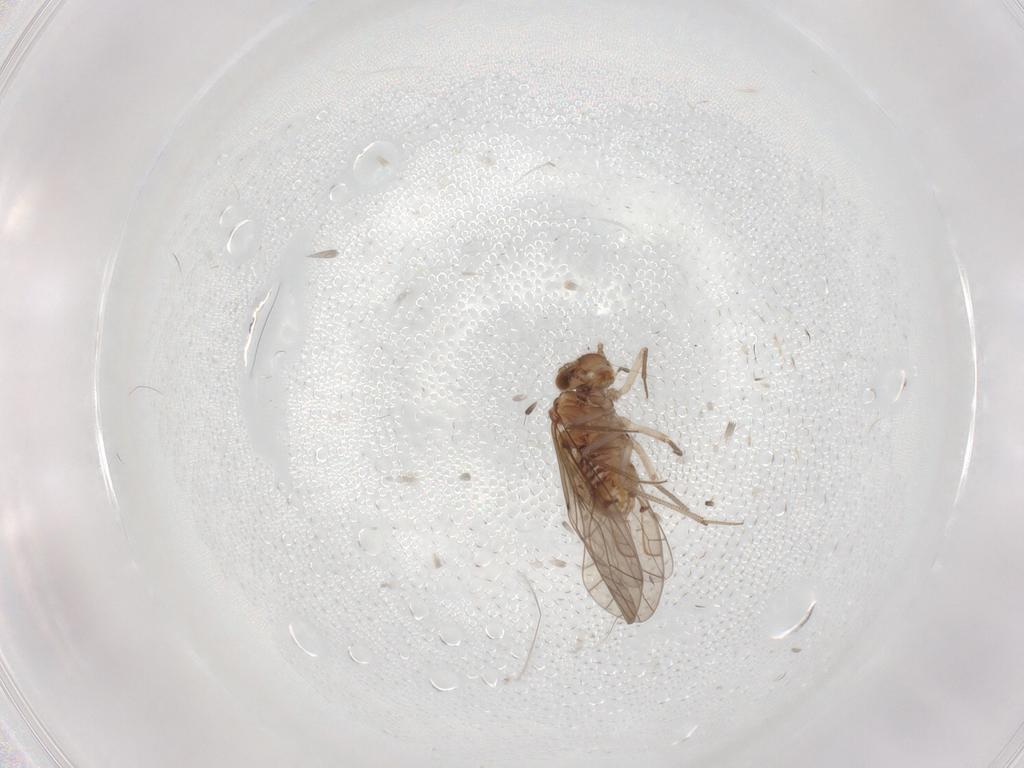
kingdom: Animalia
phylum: Arthropoda
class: Insecta
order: Psocodea
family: Lachesillidae
